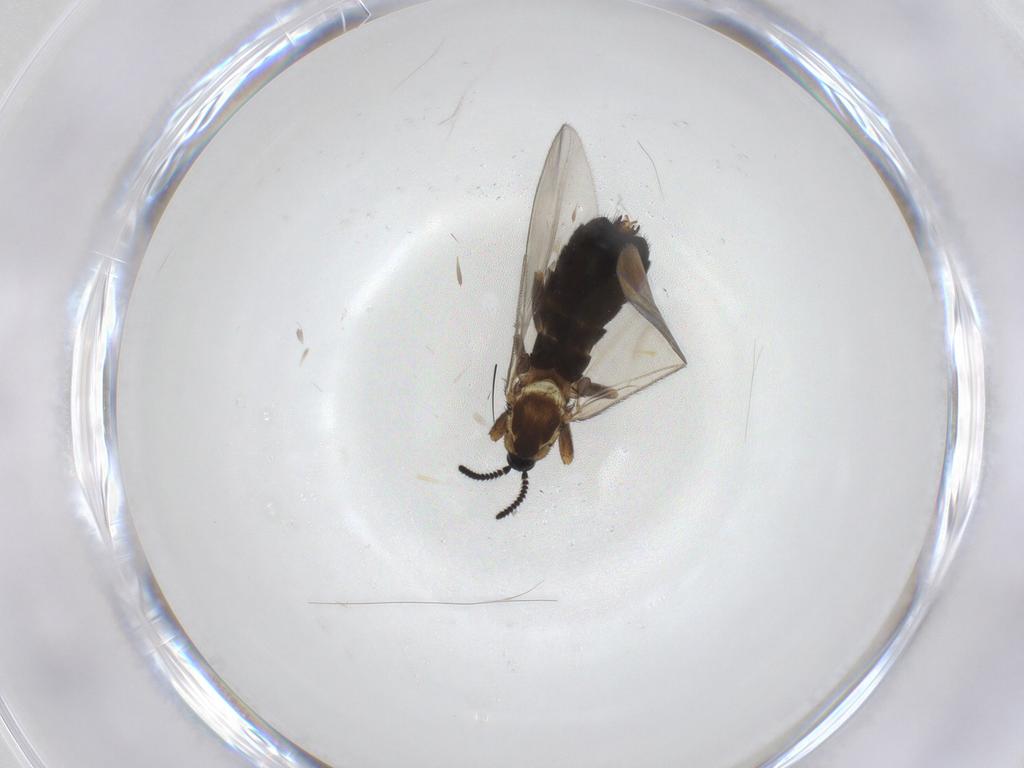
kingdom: Animalia
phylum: Arthropoda
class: Insecta
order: Diptera
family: Scatopsidae
